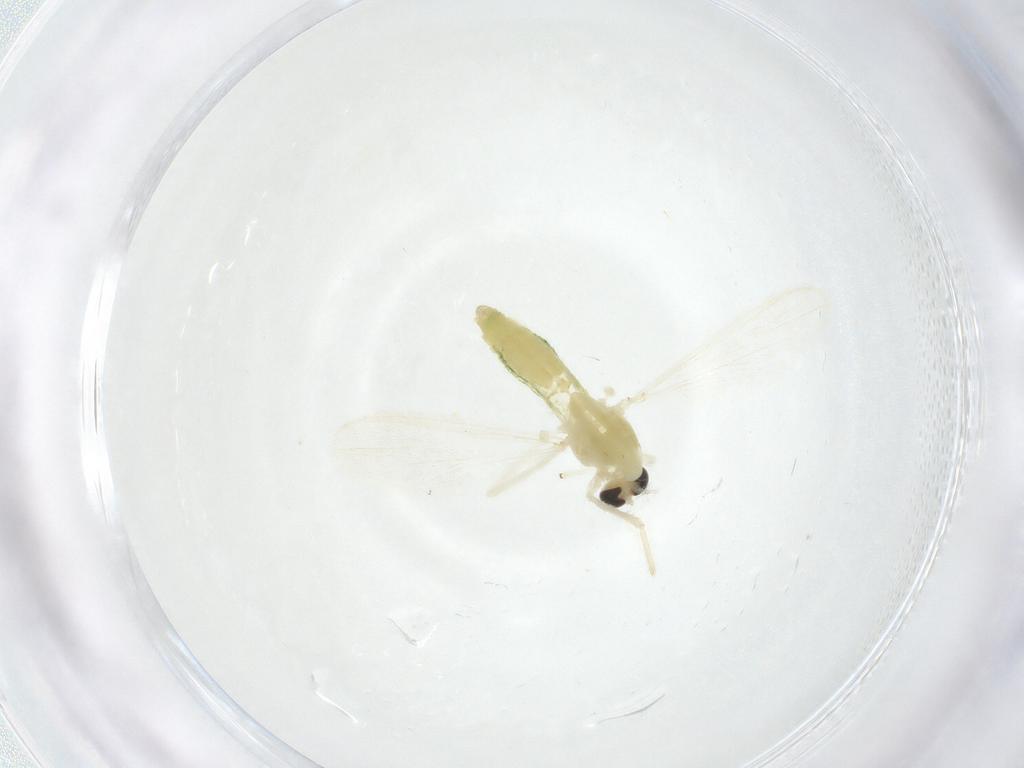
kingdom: Animalia
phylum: Arthropoda
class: Insecta
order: Diptera
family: Chironomidae
